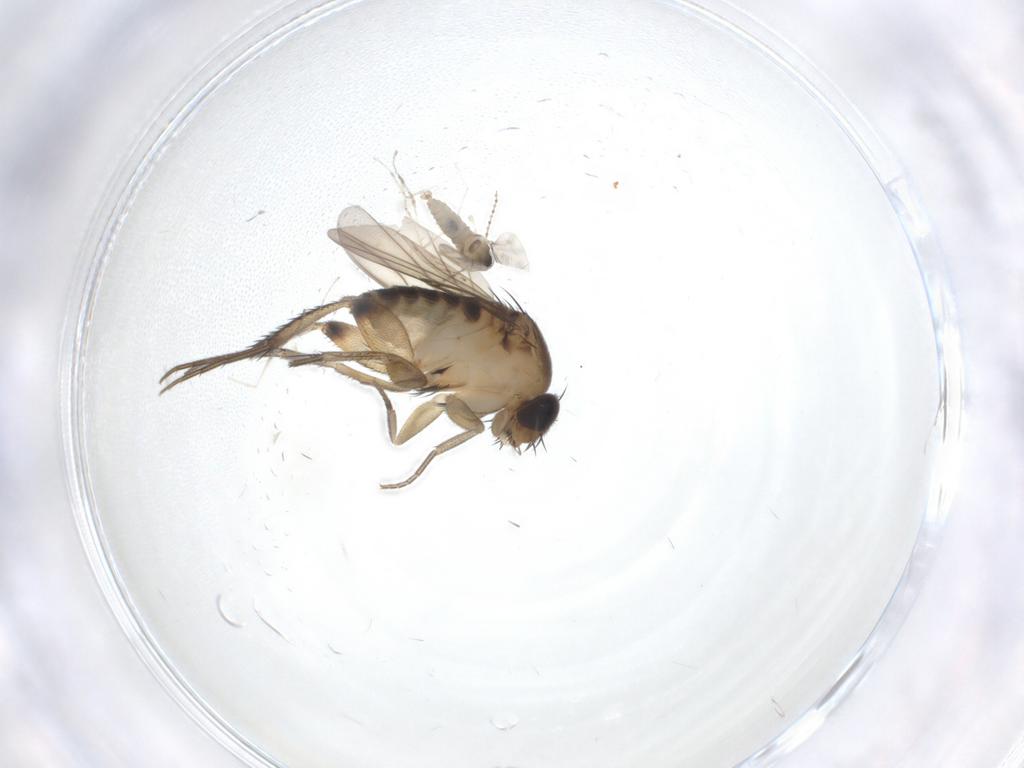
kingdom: Animalia
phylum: Arthropoda
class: Insecta
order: Diptera
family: Phoridae
